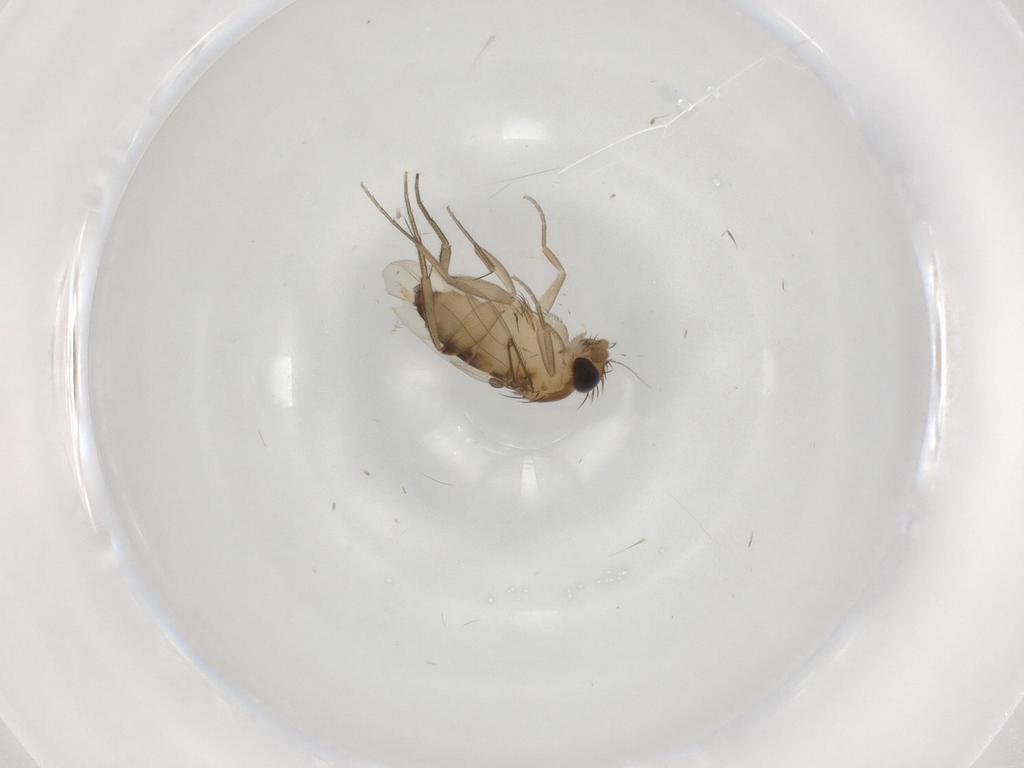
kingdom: Animalia
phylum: Arthropoda
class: Insecta
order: Diptera
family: Phoridae
